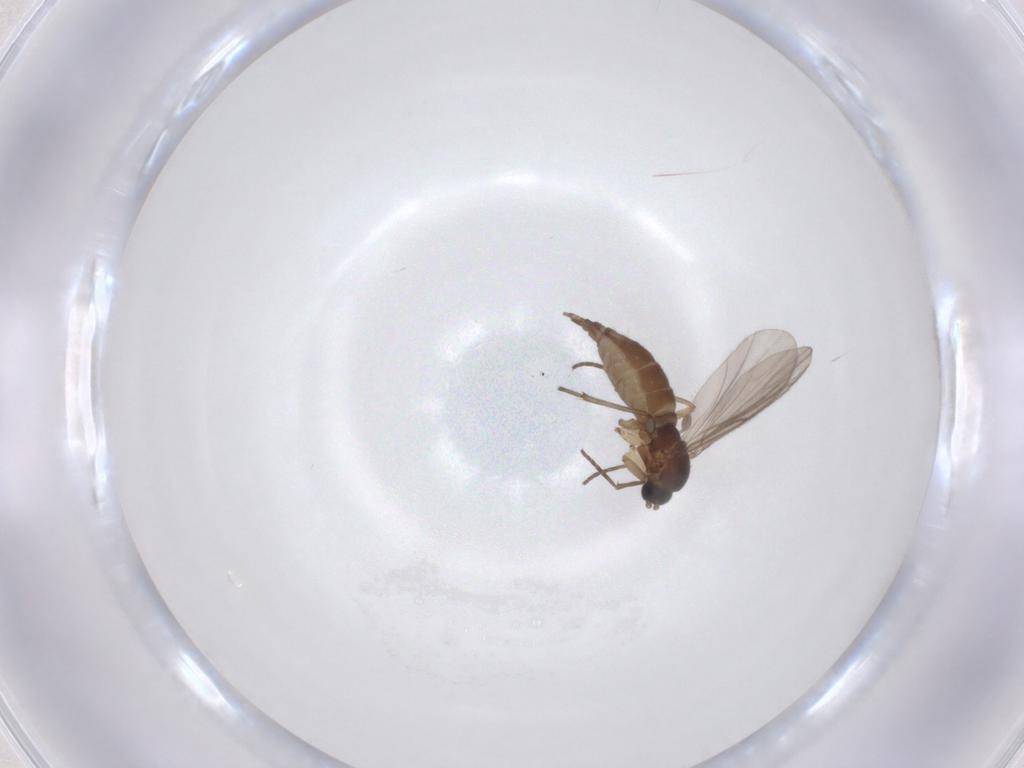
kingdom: Animalia
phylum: Arthropoda
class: Insecta
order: Diptera
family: Sciaridae
